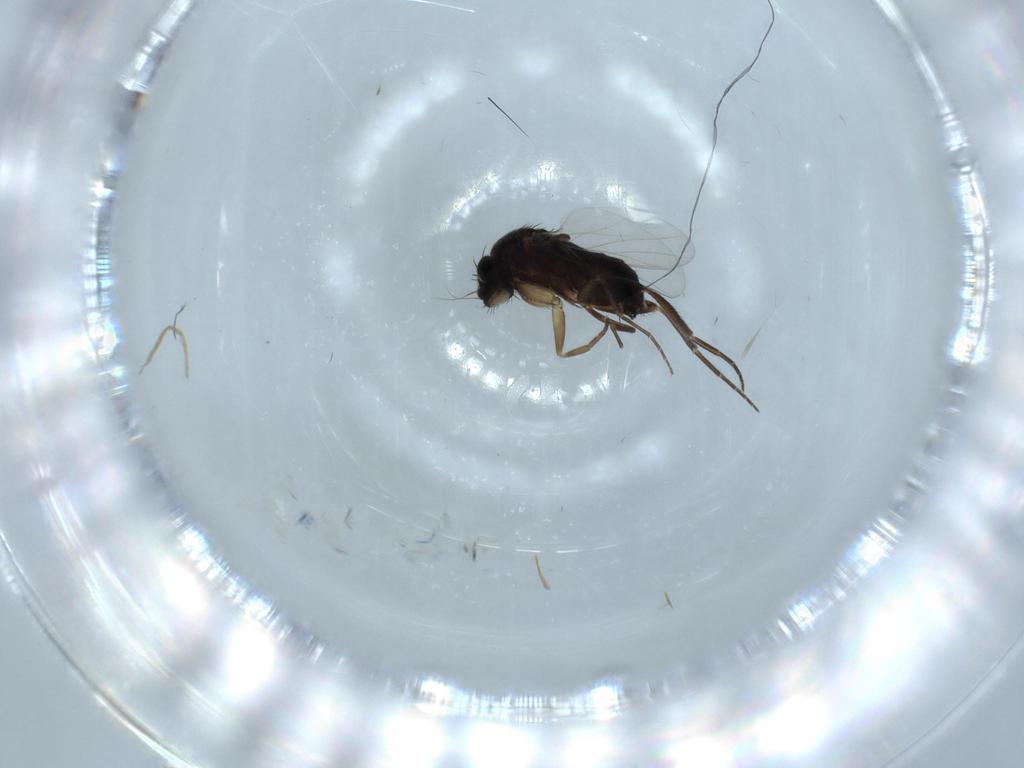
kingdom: Animalia
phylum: Arthropoda
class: Insecta
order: Diptera
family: Phoridae
